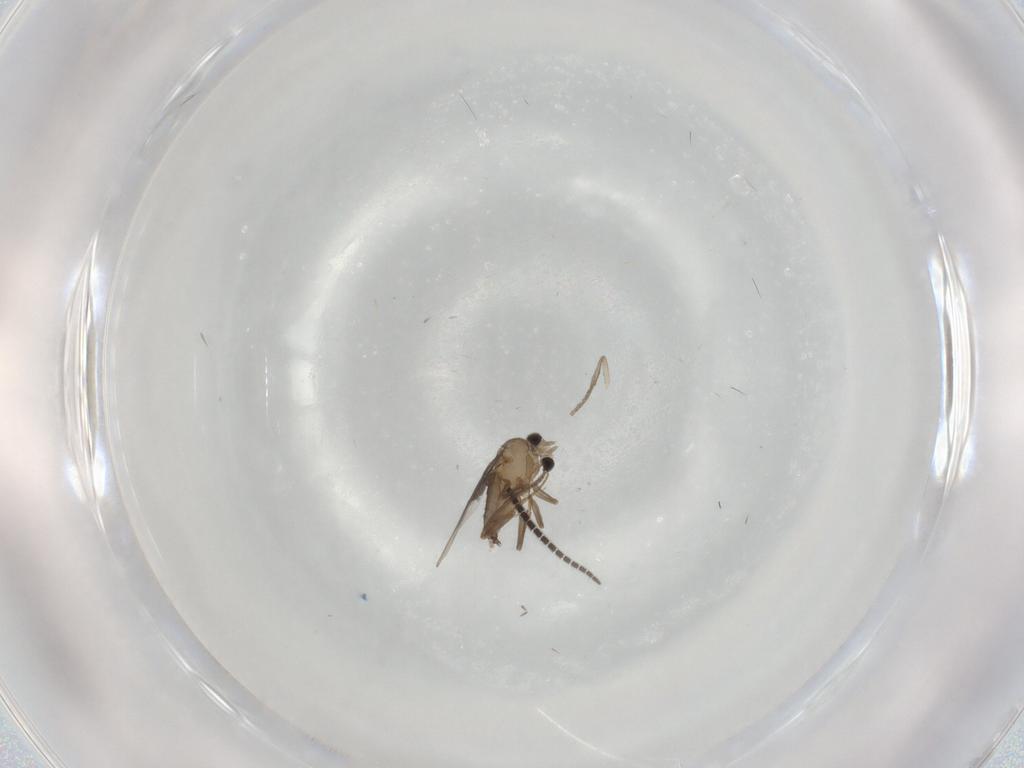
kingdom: Animalia
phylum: Arthropoda
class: Insecta
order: Diptera
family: Sciaridae
